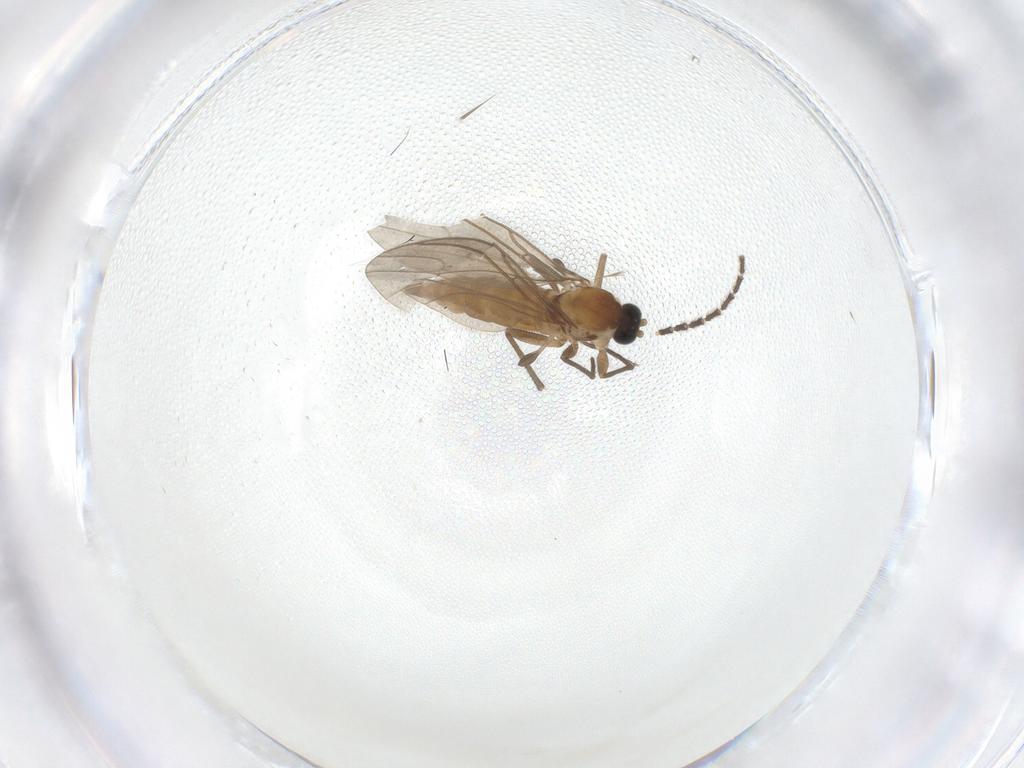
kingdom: Animalia
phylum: Arthropoda
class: Insecta
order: Diptera
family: Sciaridae
